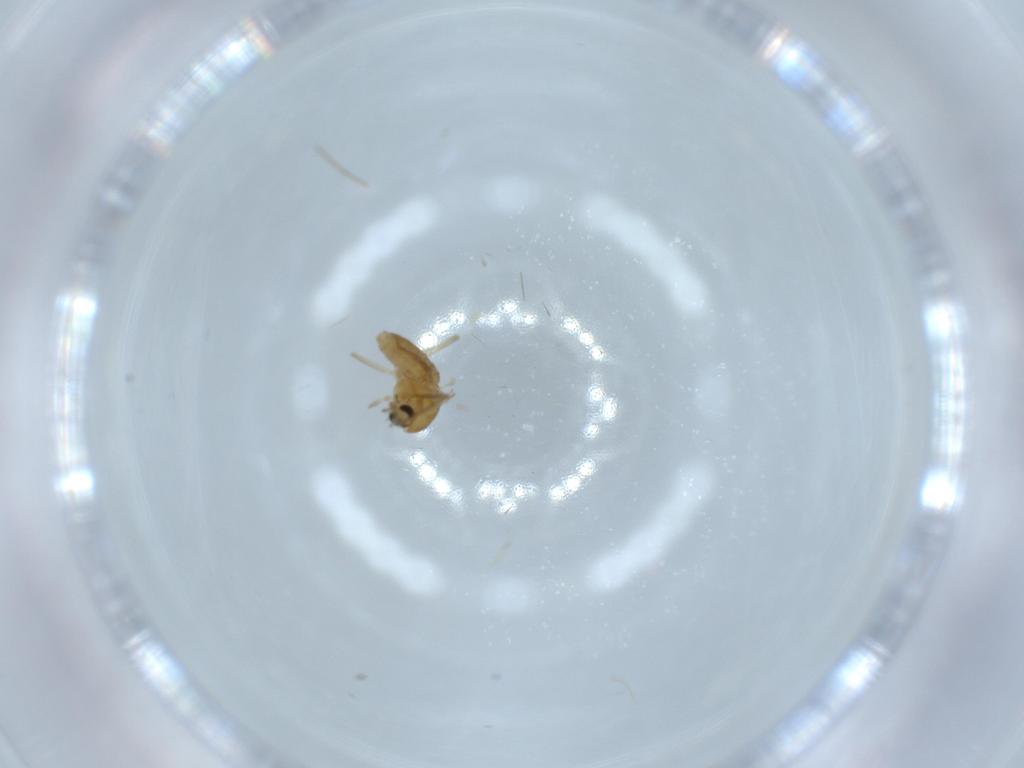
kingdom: Animalia
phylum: Arthropoda
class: Insecta
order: Diptera
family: Chironomidae
